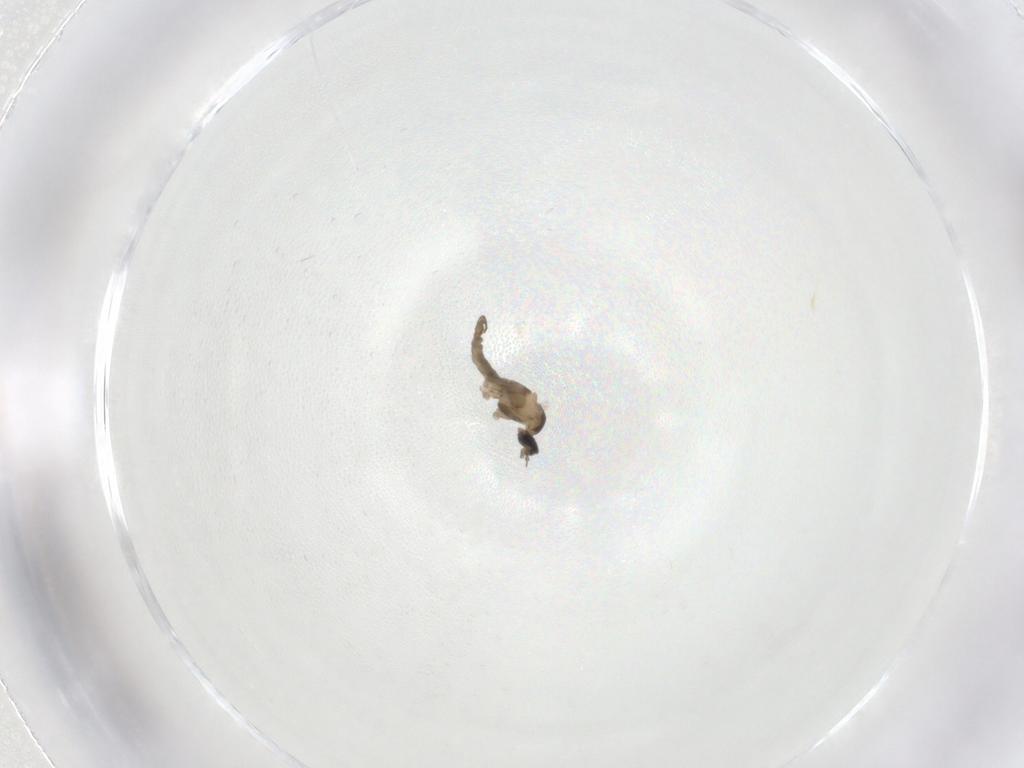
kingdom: Animalia
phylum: Arthropoda
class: Insecta
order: Diptera
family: Cecidomyiidae
